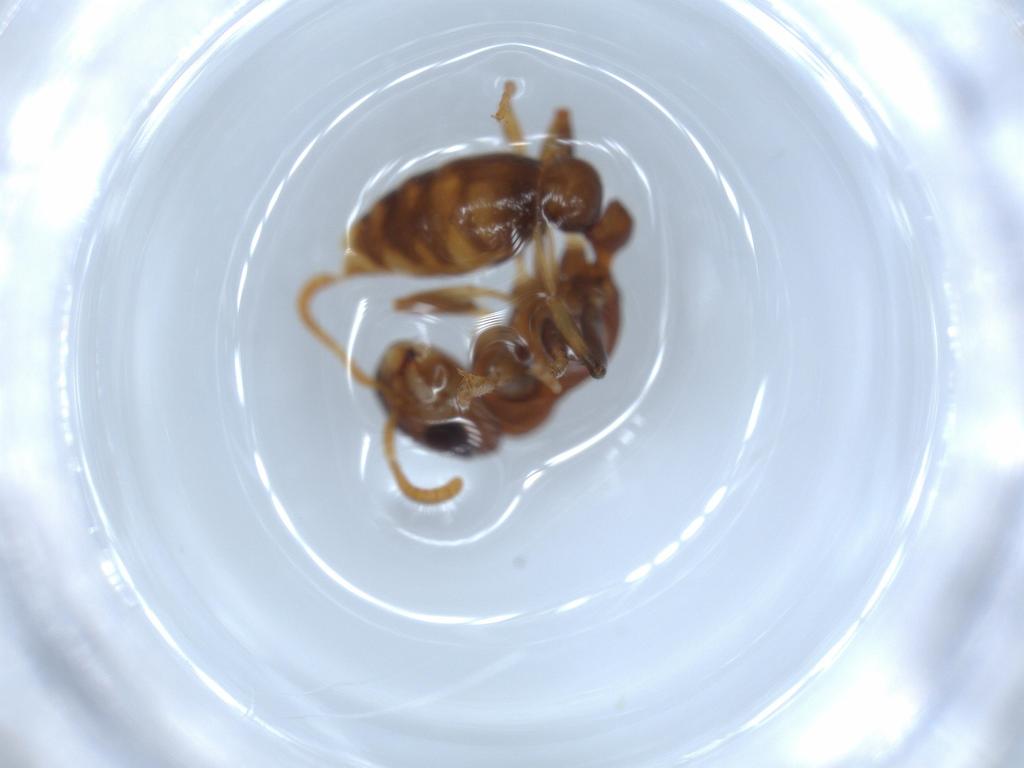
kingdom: Animalia
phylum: Arthropoda
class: Insecta
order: Hymenoptera
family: Formicidae
